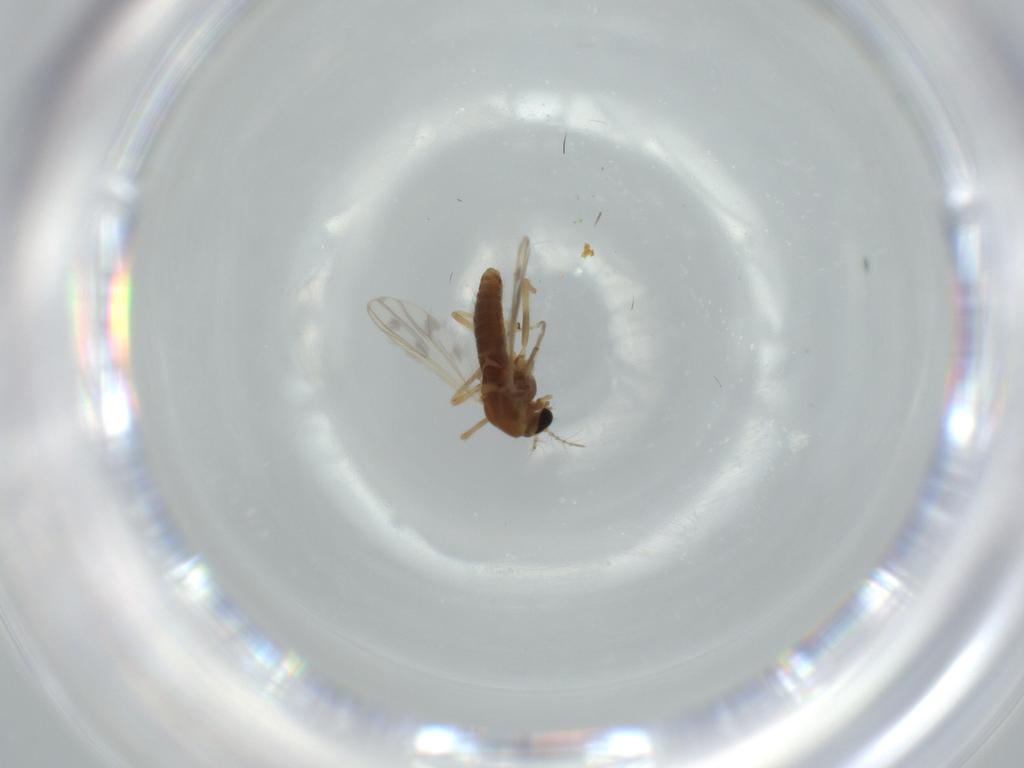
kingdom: Animalia
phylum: Arthropoda
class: Insecta
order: Diptera
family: Chironomidae
